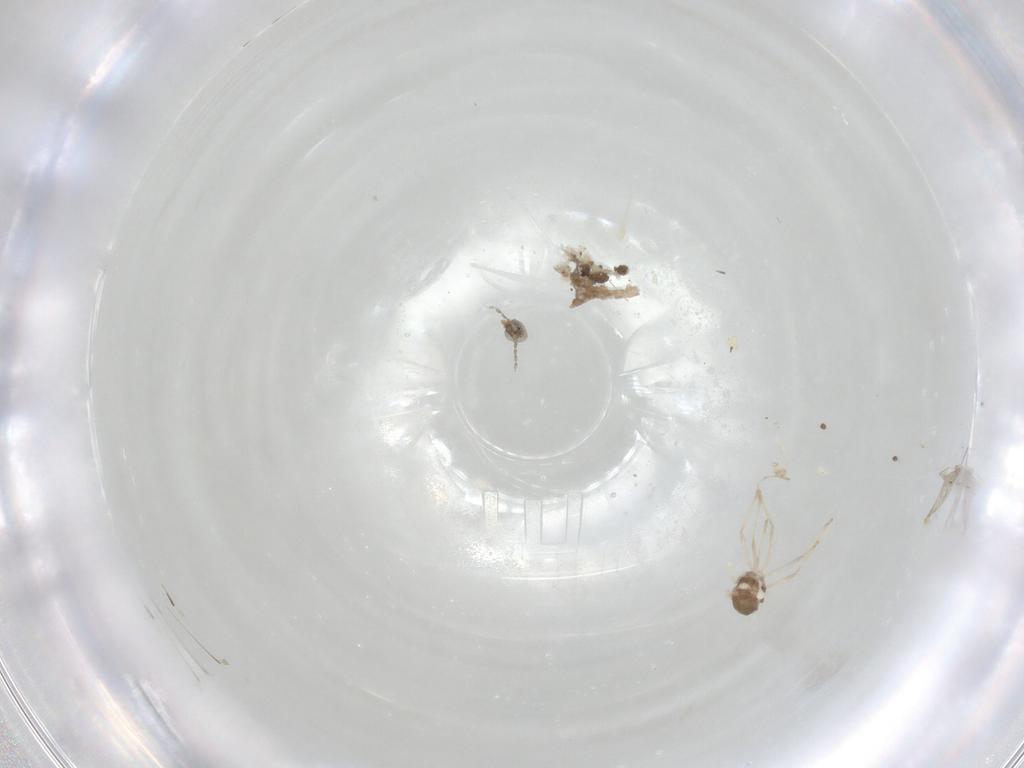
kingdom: Animalia
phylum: Arthropoda
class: Insecta
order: Diptera
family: Cecidomyiidae
